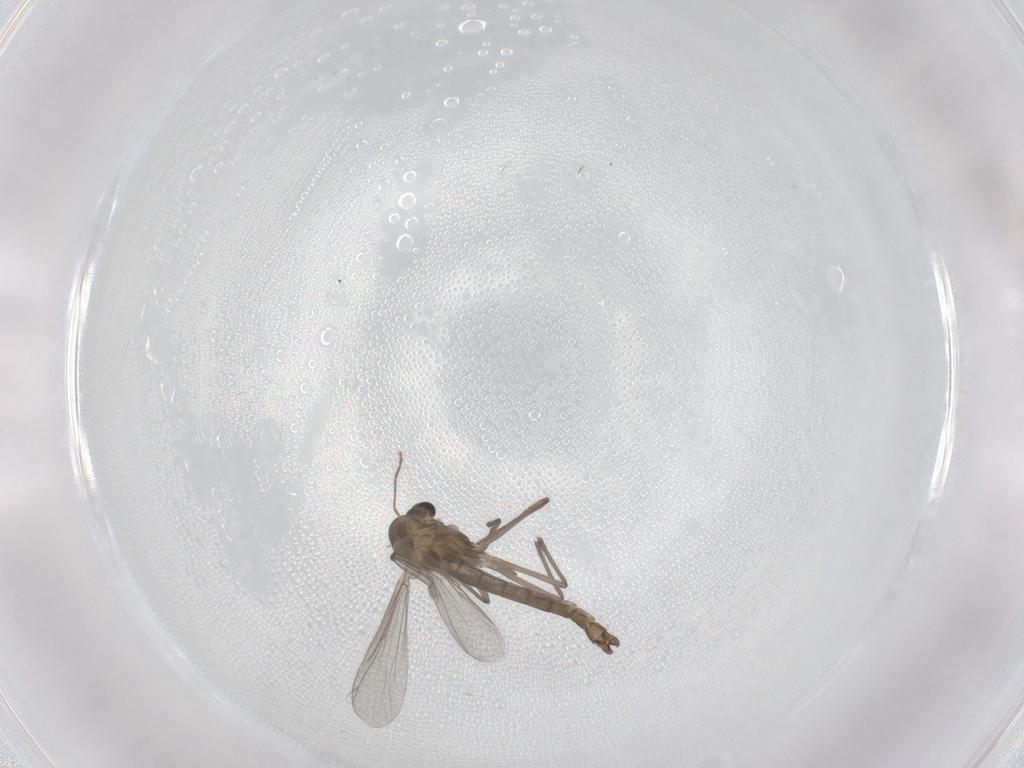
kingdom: Animalia
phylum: Arthropoda
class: Insecta
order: Diptera
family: Chironomidae
